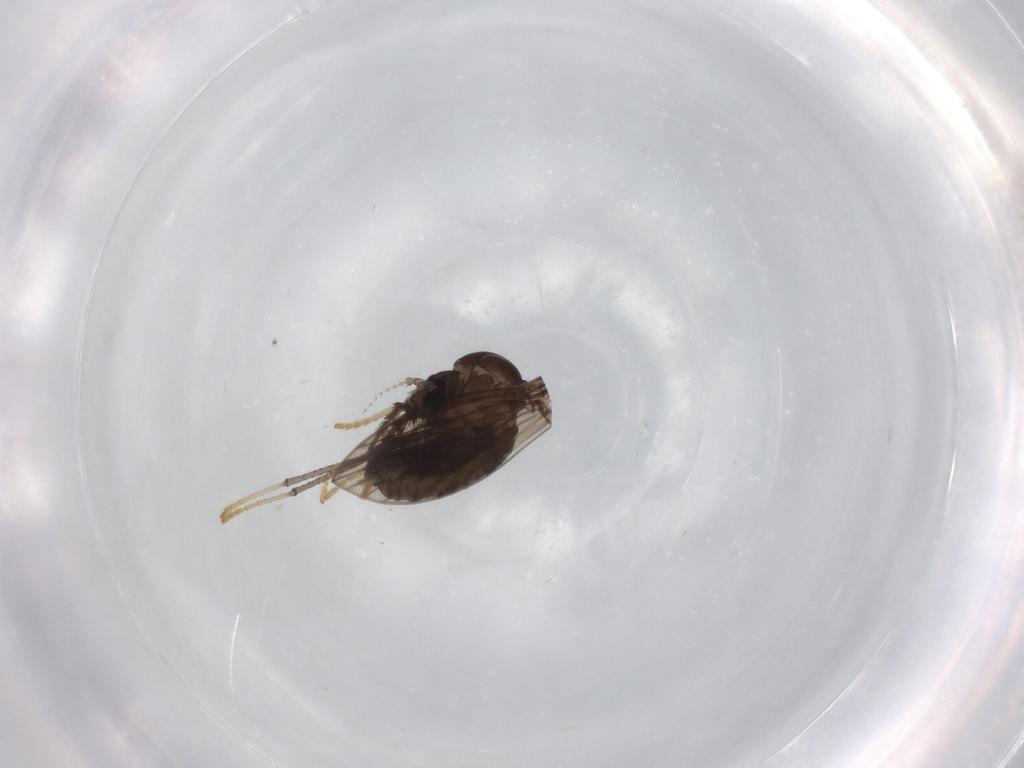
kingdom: Animalia
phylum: Arthropoda
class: Insecta
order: Diptera
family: Psychodidae
